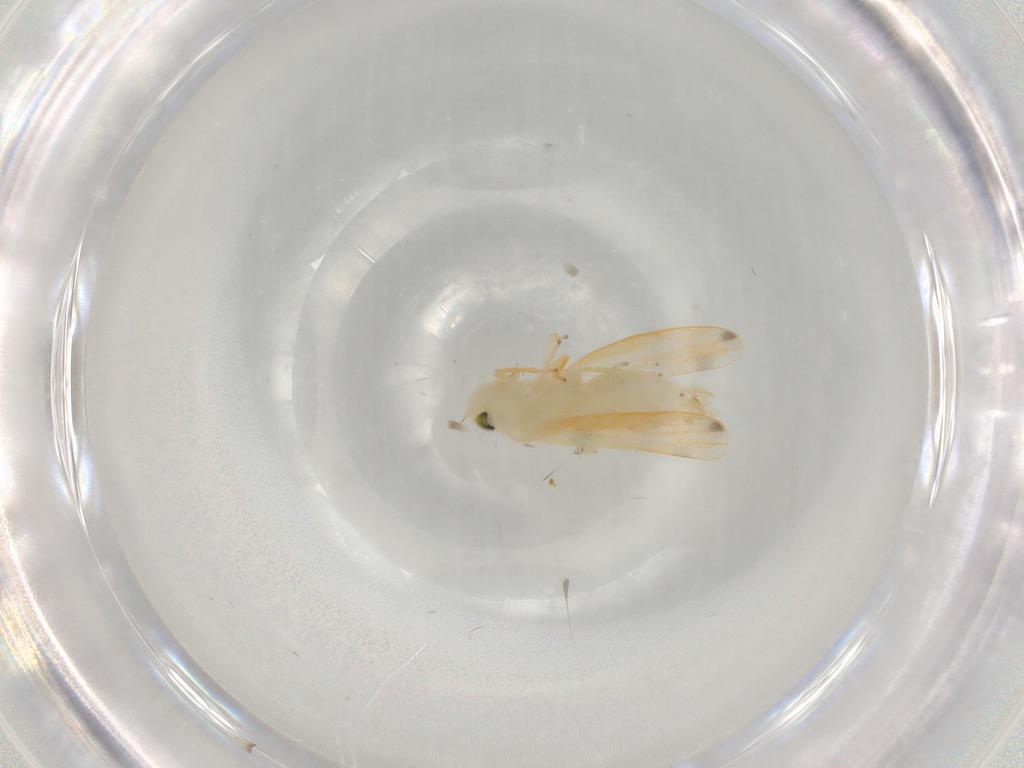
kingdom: Animalia
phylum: Arthropoda
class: Insecta
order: Hemiptera
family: Cicadellidae
